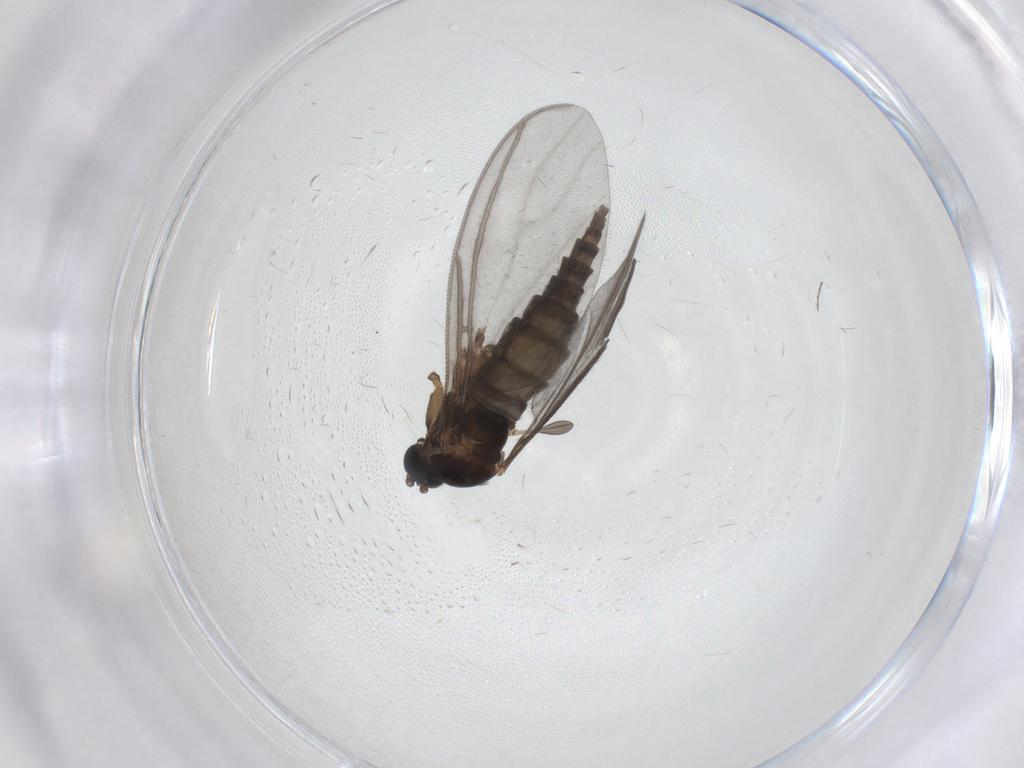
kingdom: Animalia
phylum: Arthropoda
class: Insecta
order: Diptera
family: Sciaridae
